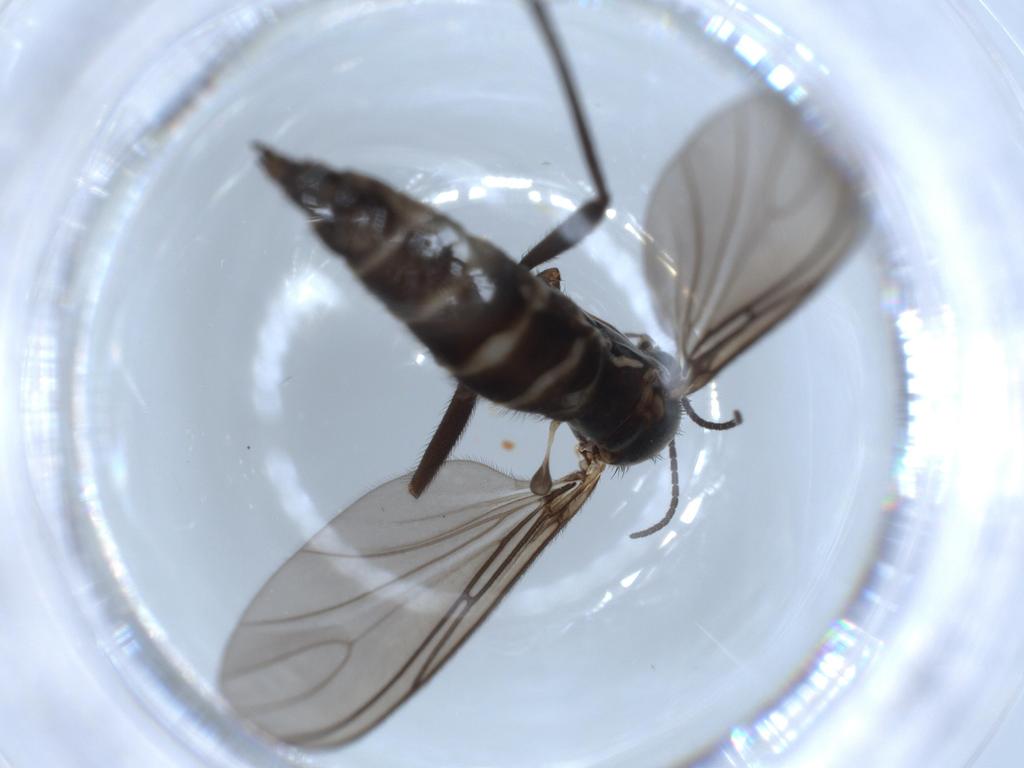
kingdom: Animalia
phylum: Arthropoda
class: Insecta
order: Diptera
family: Sciaridae
